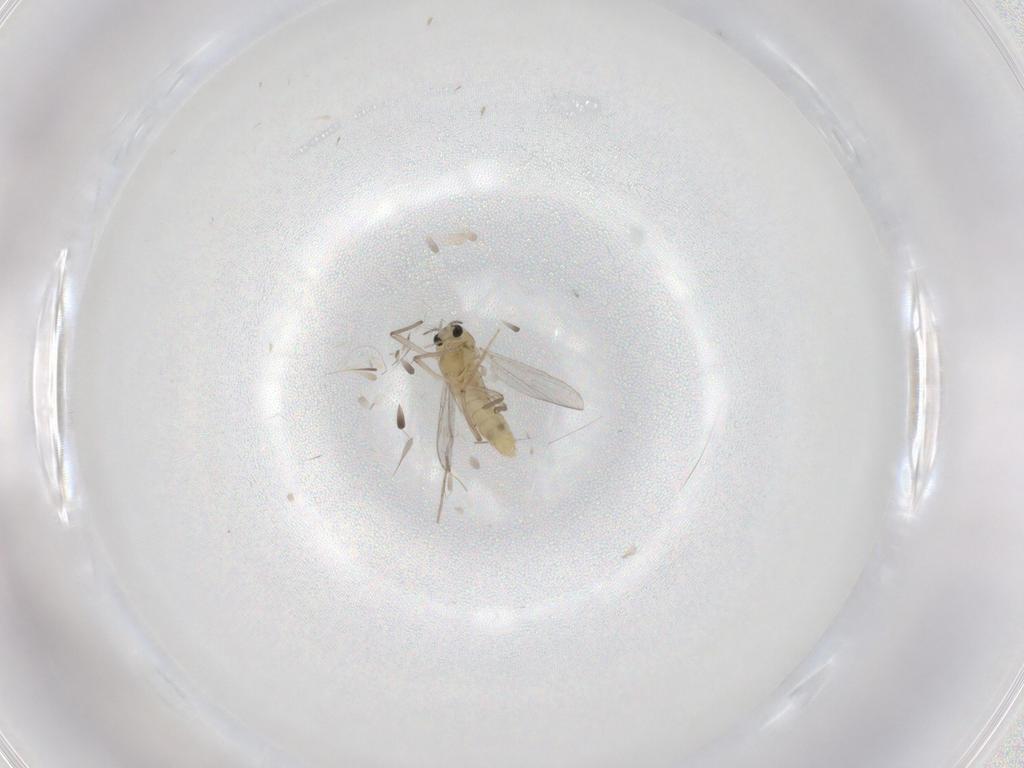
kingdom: Animalia
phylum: Arthropoda
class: Insecta
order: Diptera
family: Chironomidae
